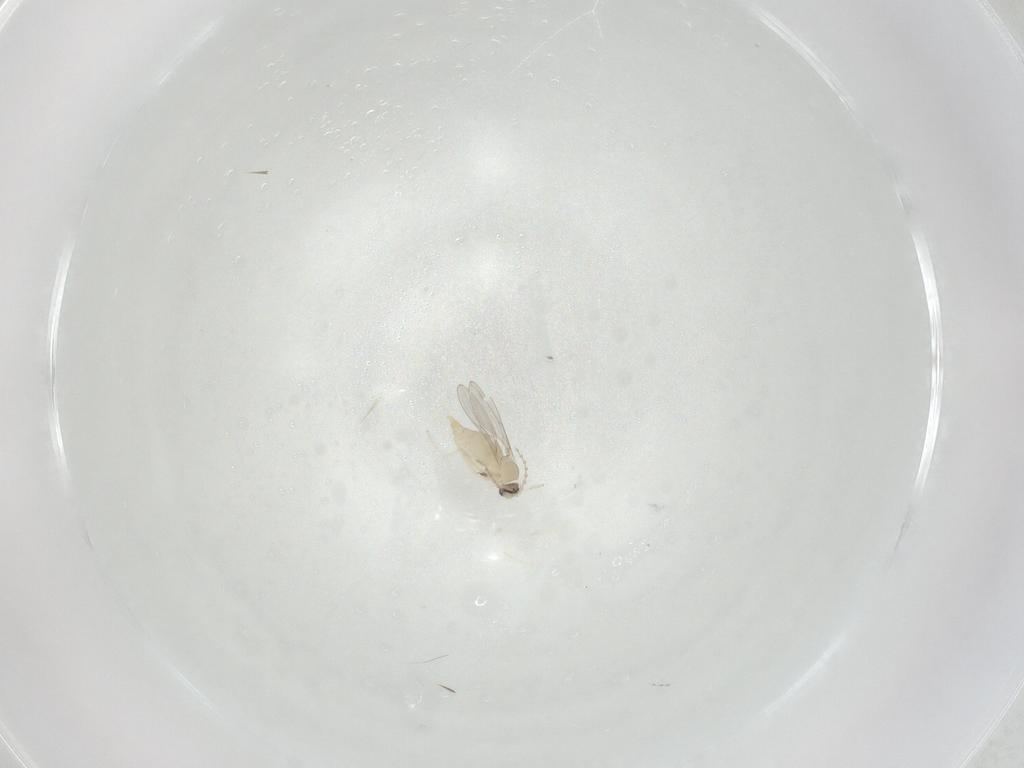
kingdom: Animalia
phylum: Arthropoda
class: Insecta
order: Diptera
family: Cecidomyiidae
